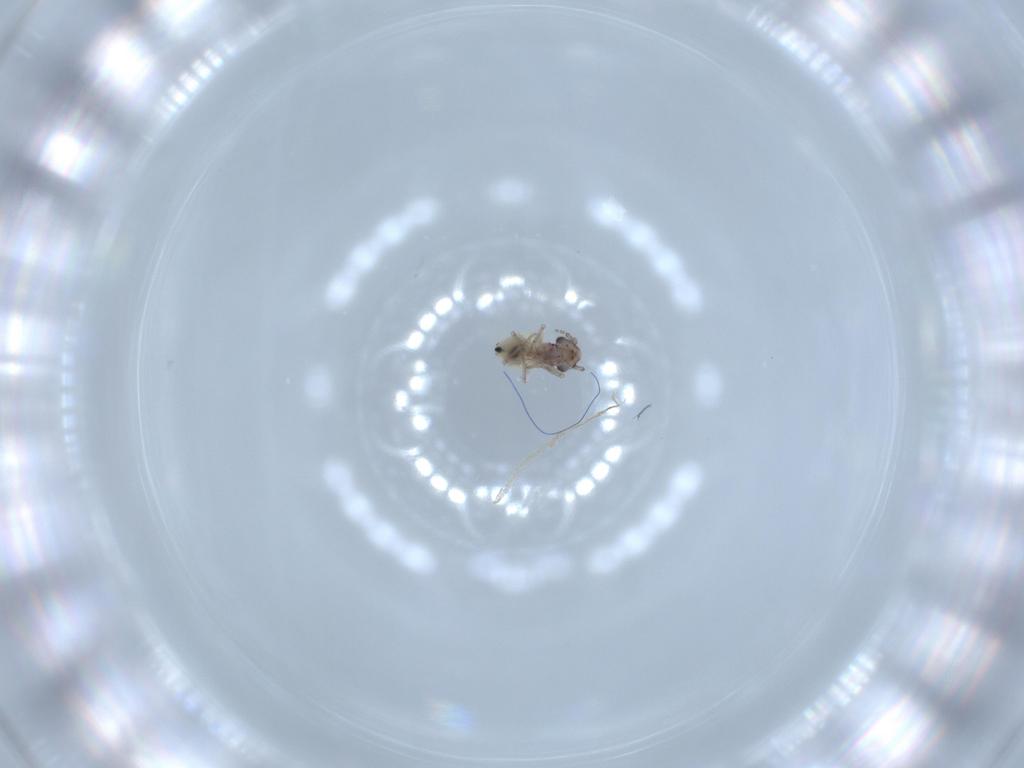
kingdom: Animalia
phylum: Arthropoda
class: Insecta
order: Psocodea
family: Lepidopsocidae
